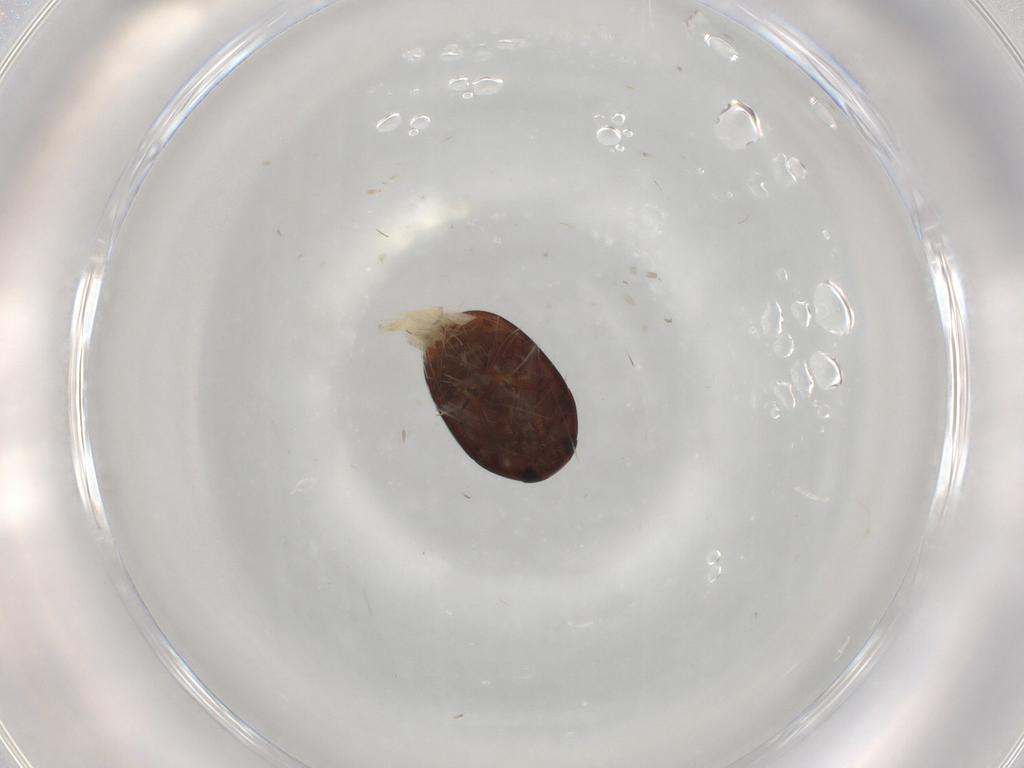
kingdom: Animalia
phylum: Arthropoda
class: Insecta
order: Coleoptera
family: Phalacridae
